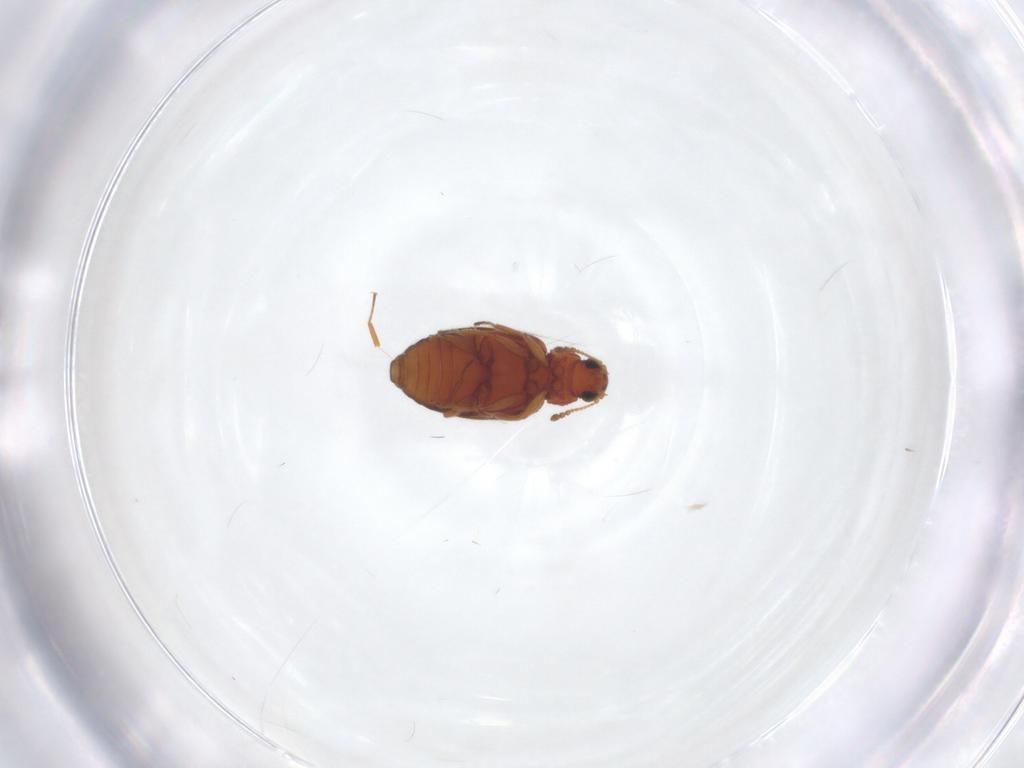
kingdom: Animalia
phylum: Arthropoda
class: Insecta
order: Coleoptera
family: Latridiidae
